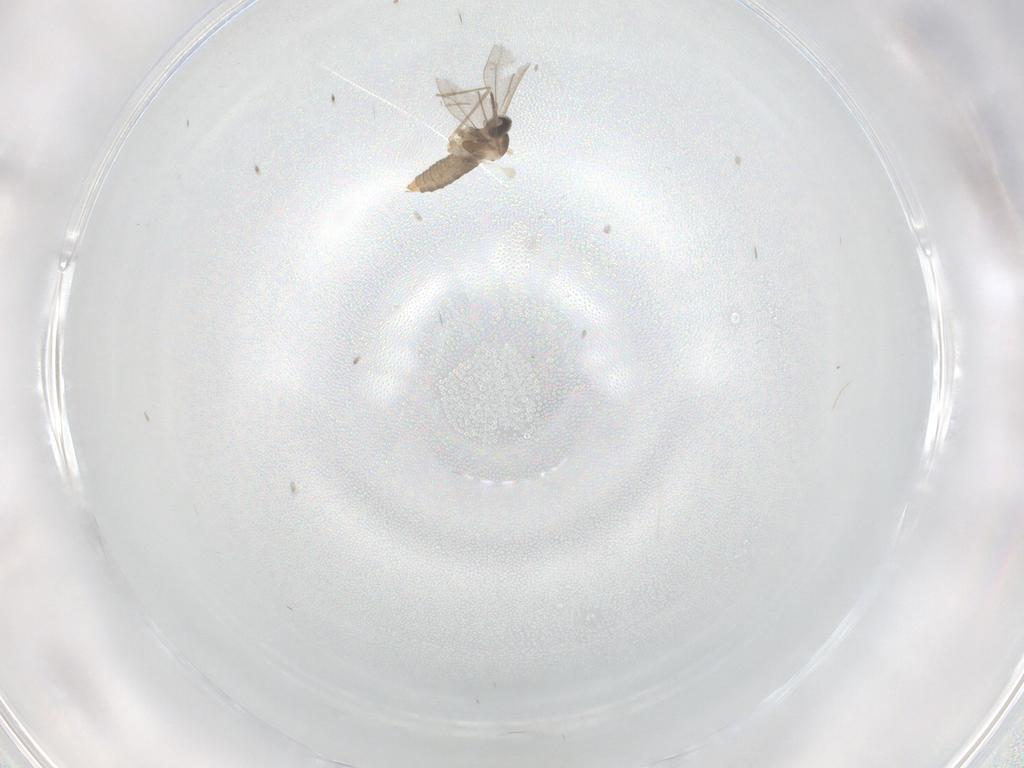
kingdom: Animalia
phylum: Arthropoda
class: Insecta
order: Diptera
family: Cecidomyiidae
